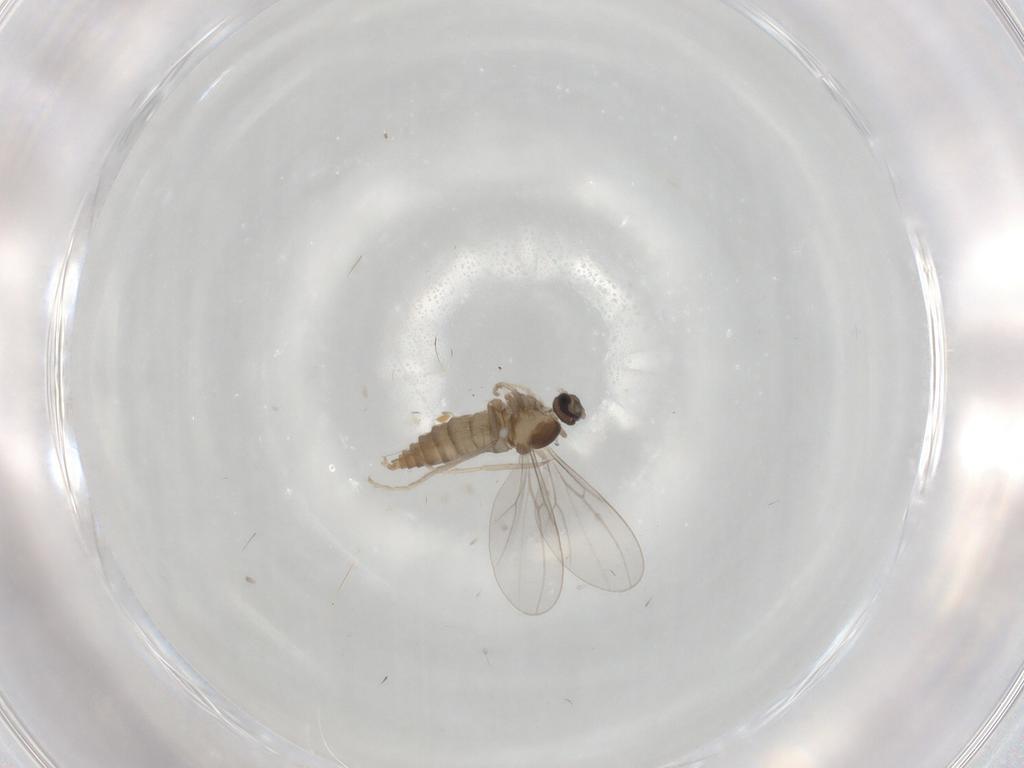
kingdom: Animalia
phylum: Arthropoda
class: Insecta
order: Diptera
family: Cecidomyiidae
